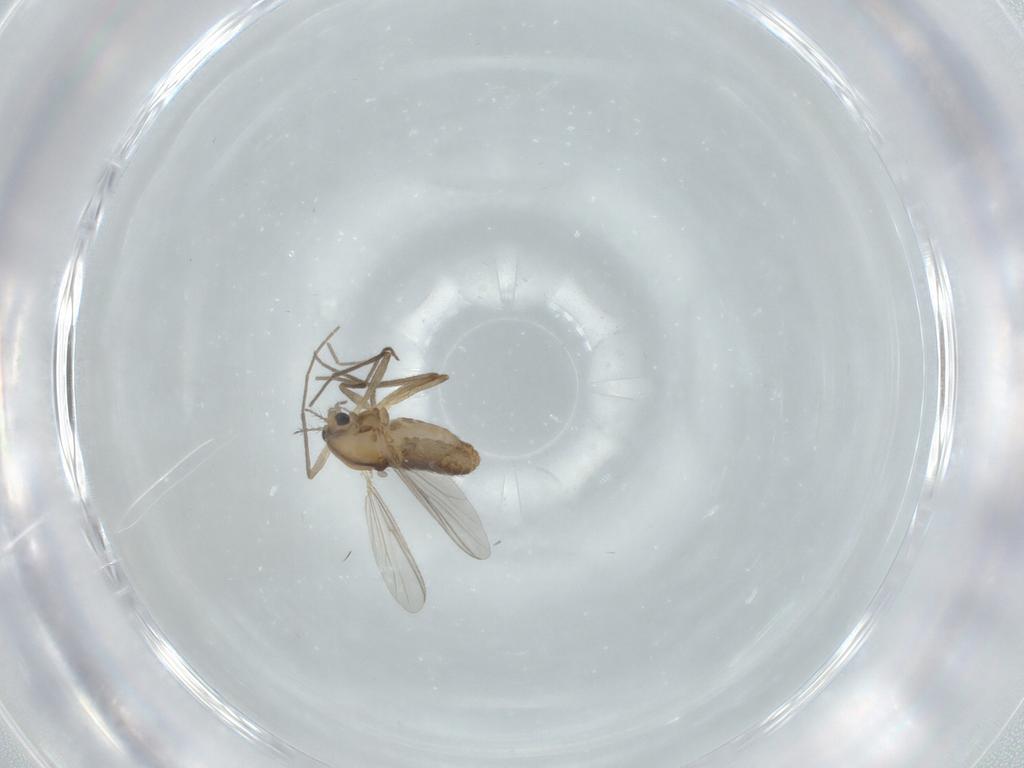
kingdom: Animalia
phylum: Arthropoda
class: Insecta
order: Diptera
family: Chironomidae
